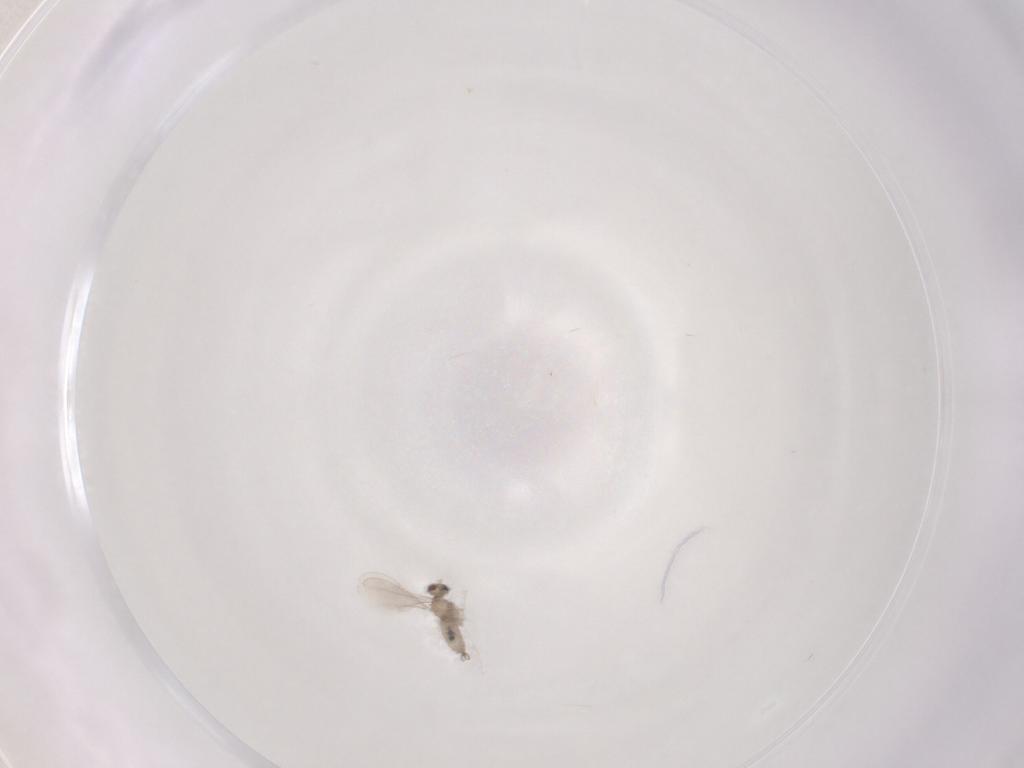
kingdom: Animalia
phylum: Arthropoda
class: Insecta
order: Diptera
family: Cecidomyiidae
